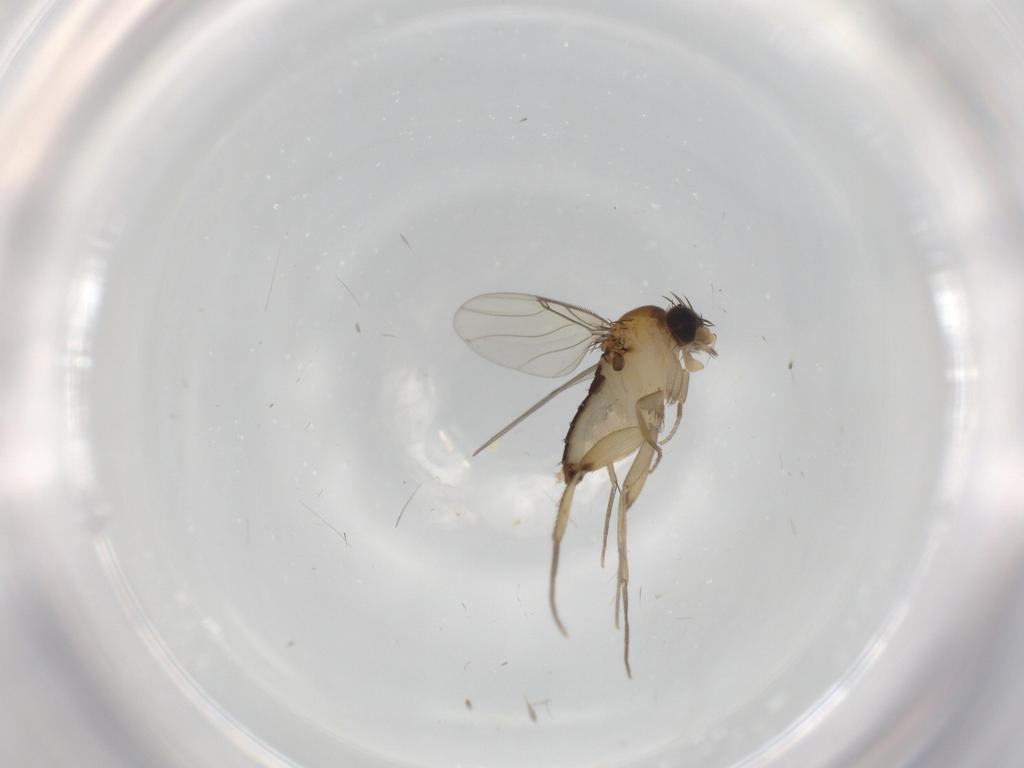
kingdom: Animalia
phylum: Arthropoda
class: Insecta
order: Diptera
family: Phoridae
